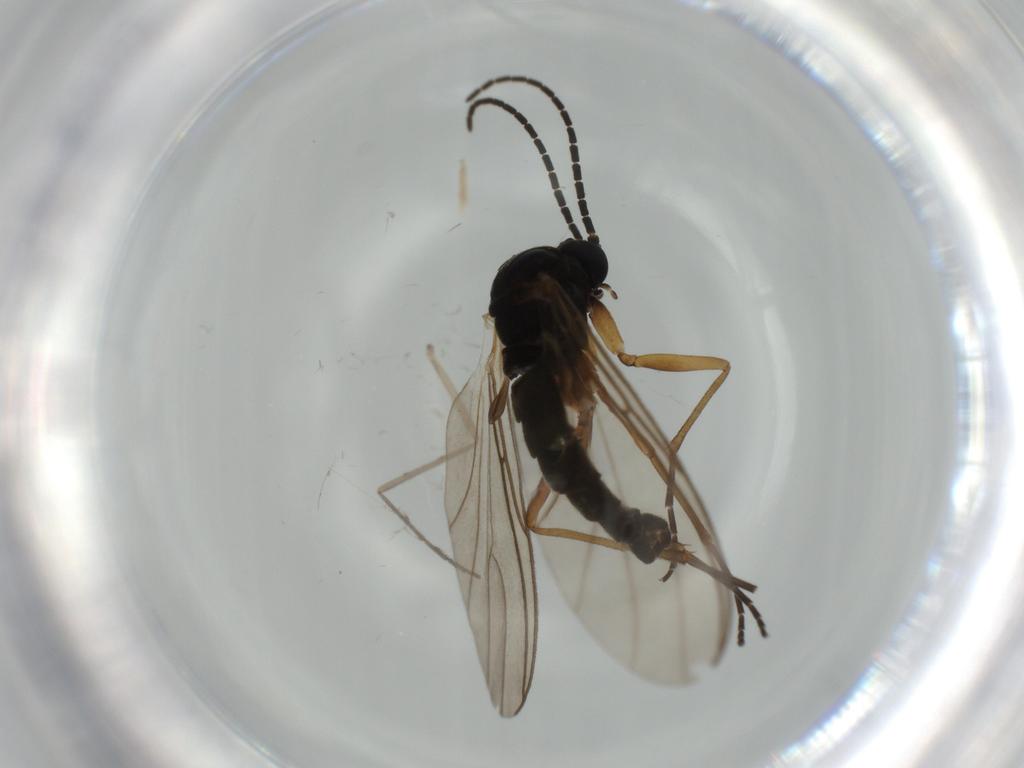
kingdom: Animalia
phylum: Arthropoda
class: Insecta
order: Diptera
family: Sciaridae
